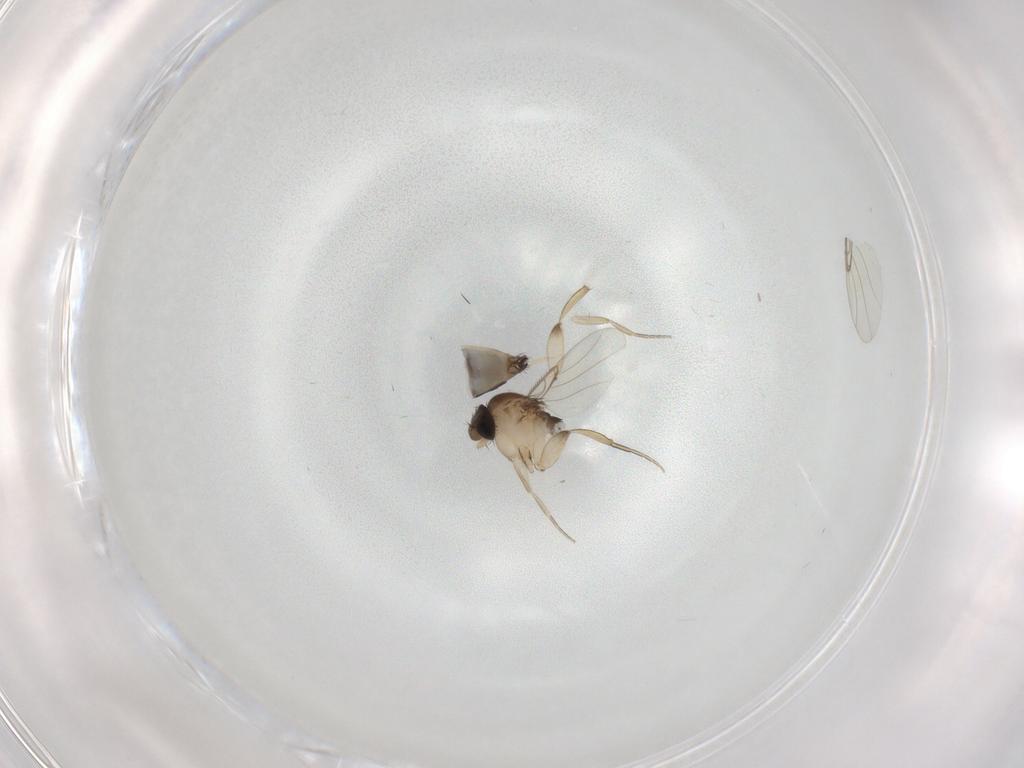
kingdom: Animalia
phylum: Arthropoda
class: Insecta
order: Diptera
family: Phoridae
